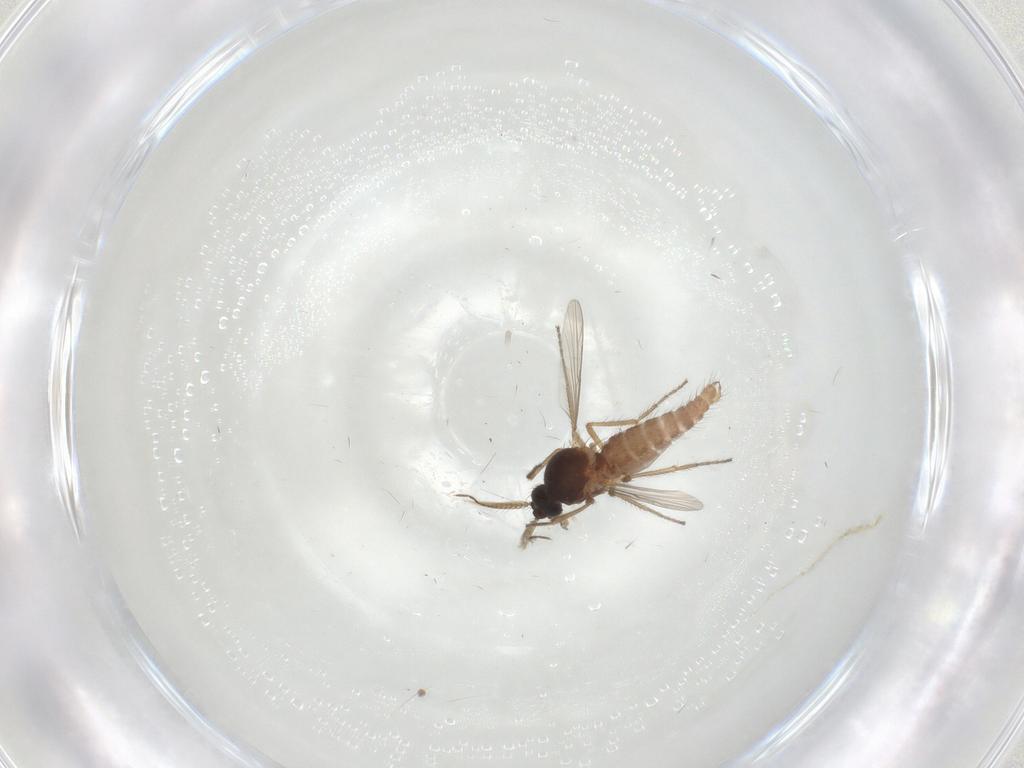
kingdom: Animalia
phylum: Arthropoda
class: Insecta
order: Diptera
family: Ceratopogonidae
